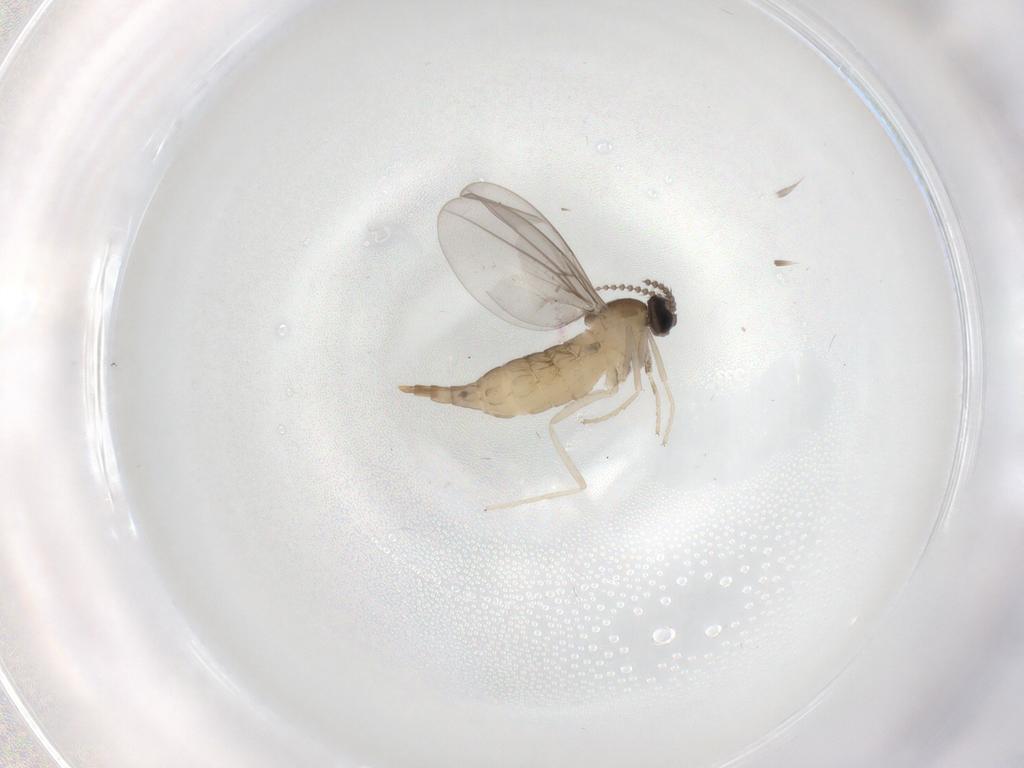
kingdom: Animalia
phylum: Arthropoda
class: Insecta
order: Diptera
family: Cecidomyiidae
